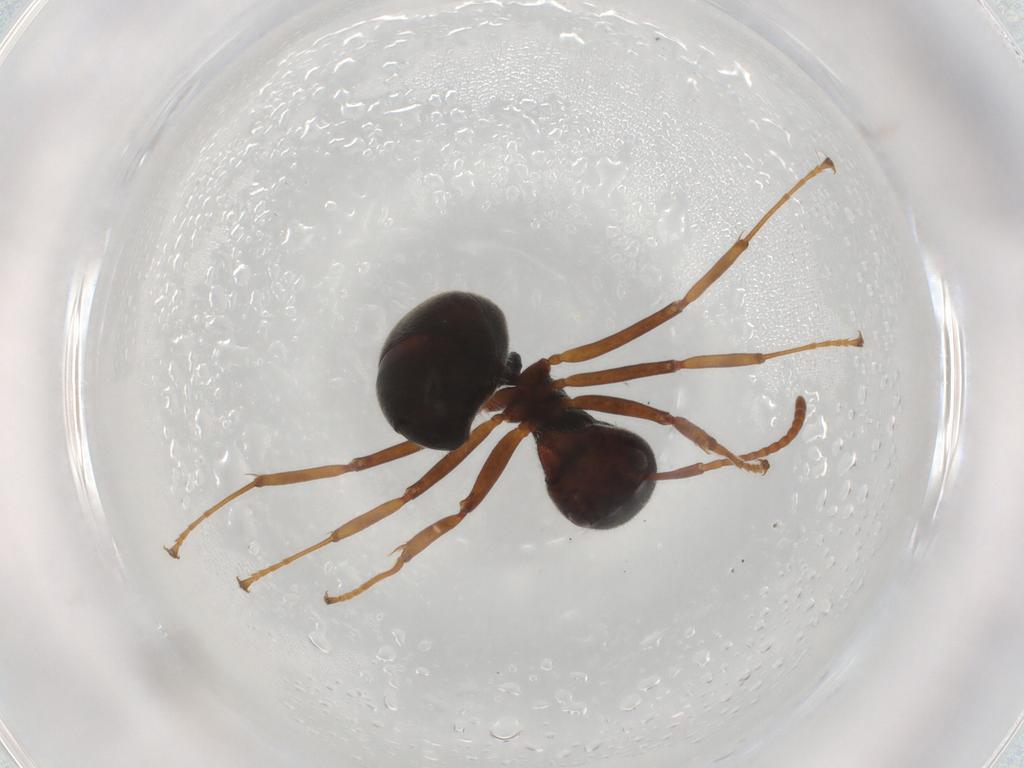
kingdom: Animalia
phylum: Arthropoda
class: Insecta
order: Hymenoptera
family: Formicidae
